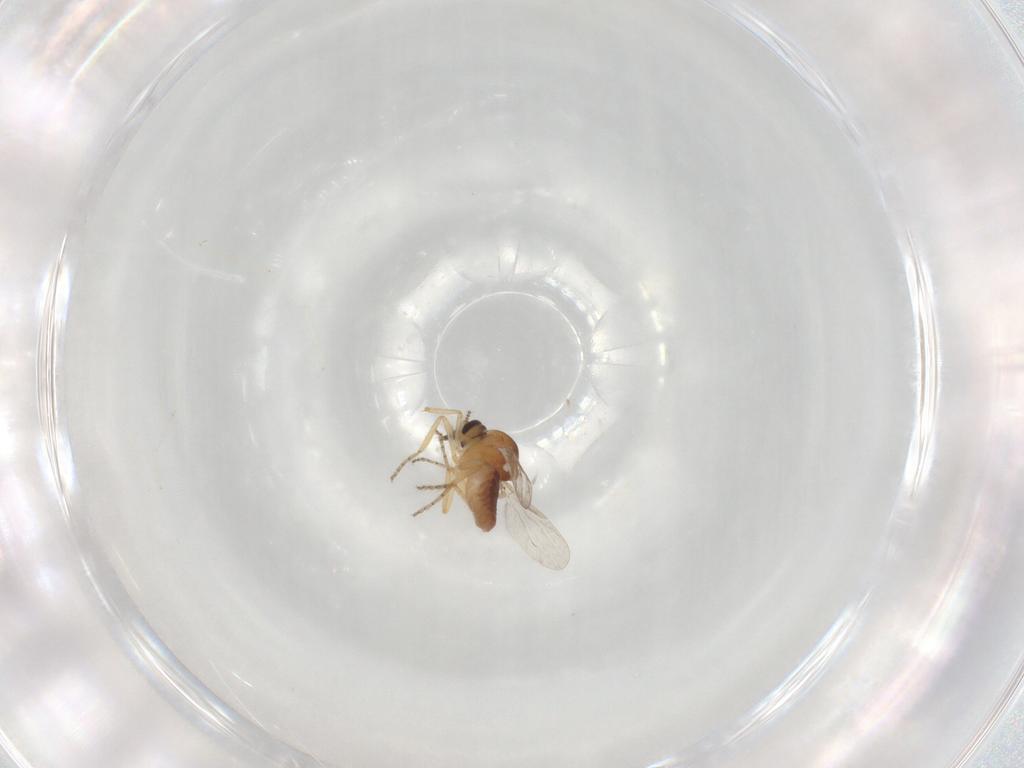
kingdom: Animalia
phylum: Arthropoda
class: Insecta
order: Diptera
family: Ceratopogonidae
